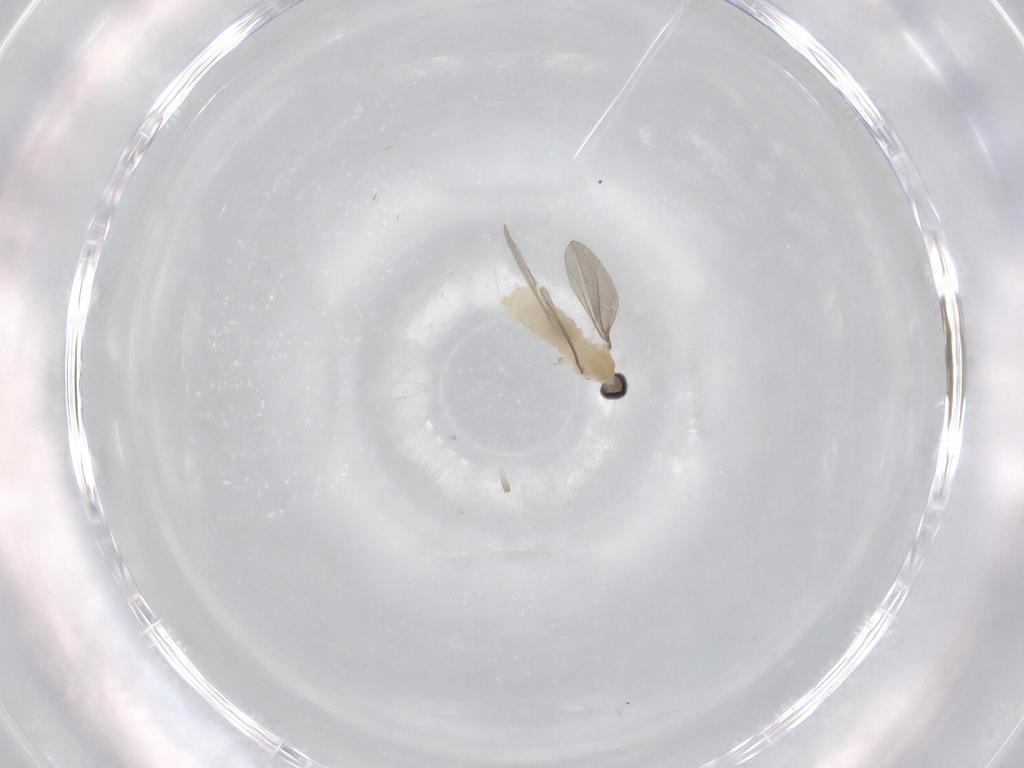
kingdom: Animalia
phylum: Arthropoda
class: Insecta
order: Diptera
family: Cecidomyiidae
